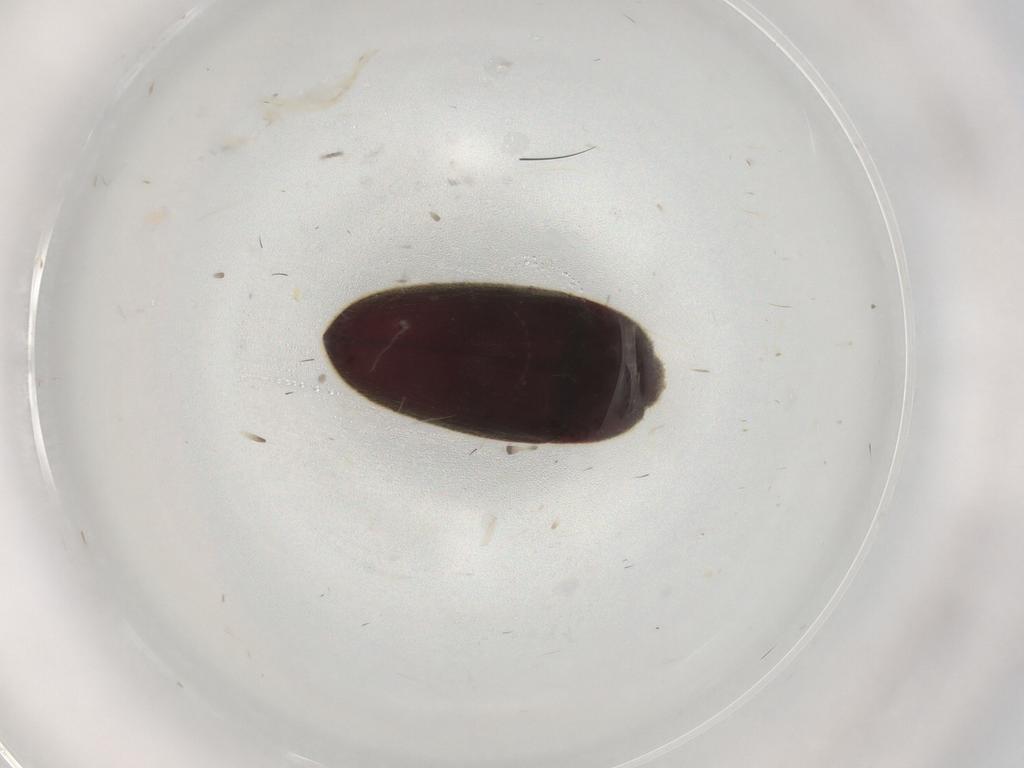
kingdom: Animalia
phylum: Arthropoda
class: Insecta
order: Coleoptera
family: Throscidae
